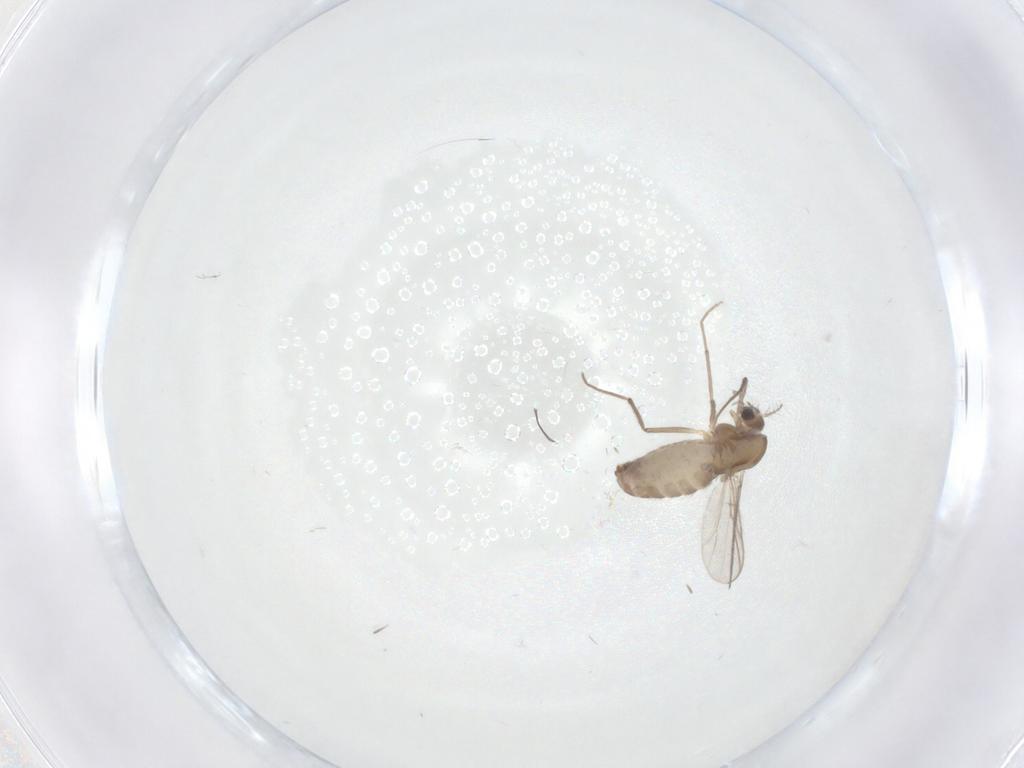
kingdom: Animalia
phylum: Arthropoda
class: Insecta
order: Diptera
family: Chironomidae
